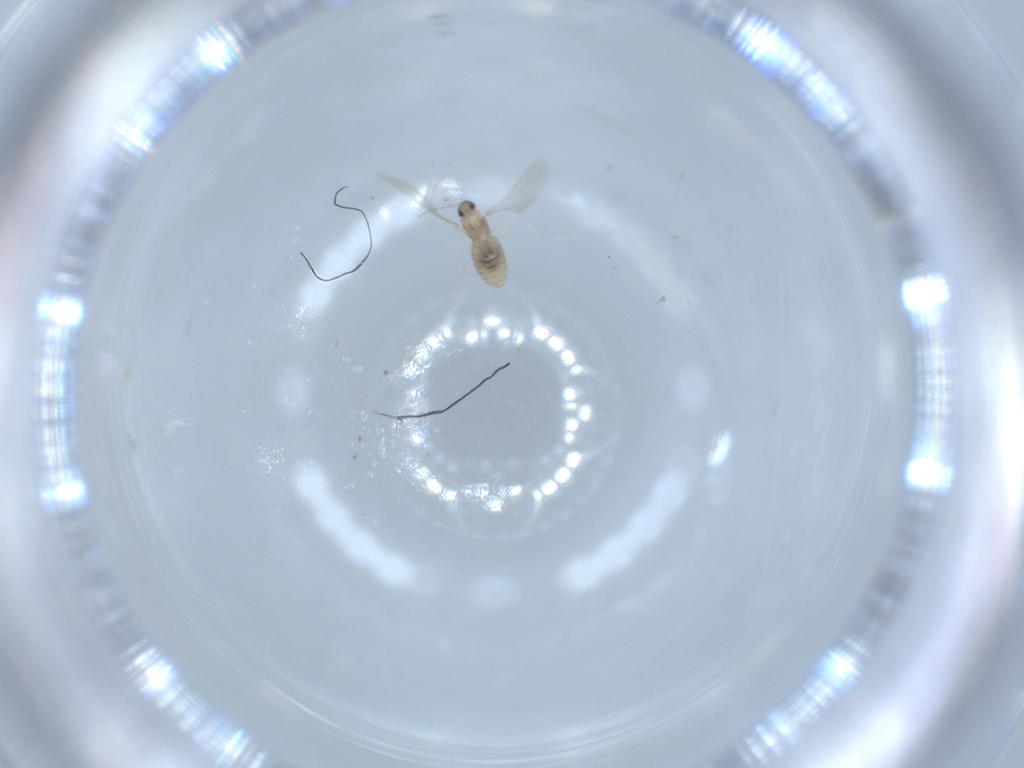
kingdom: Animalia
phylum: Arthropoda
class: Insecta
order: Diptera
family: Cecidomyiidae
